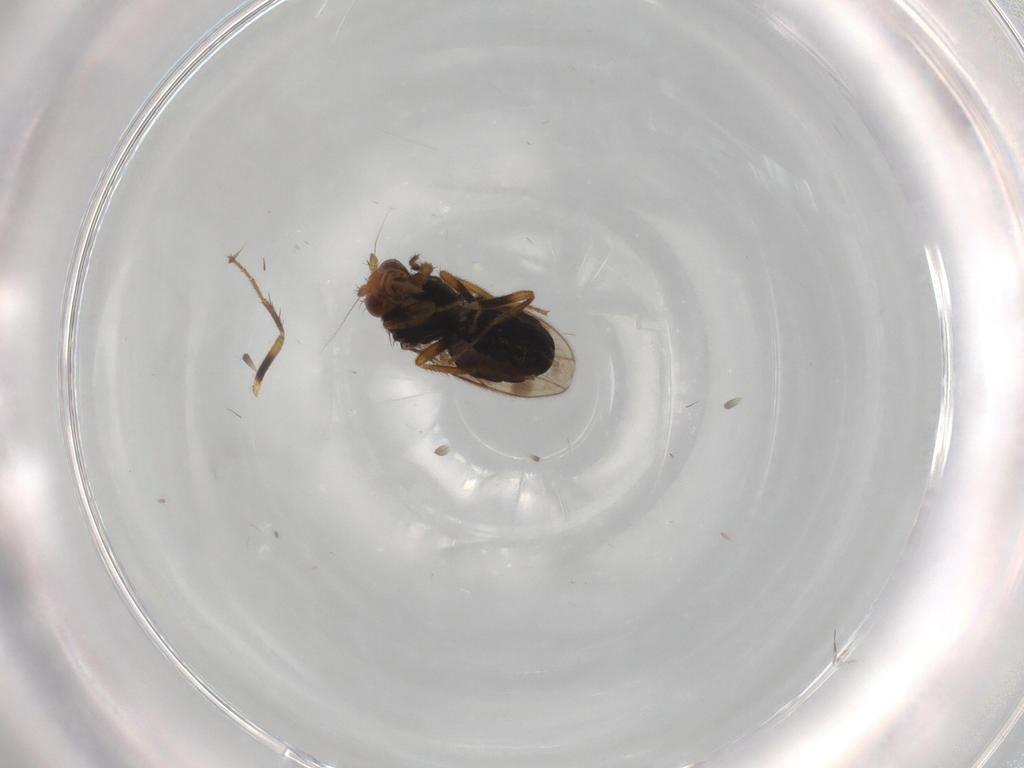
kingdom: Animalia
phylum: Arthropoda
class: Insecta
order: Diptera
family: Sphaeroceridae
